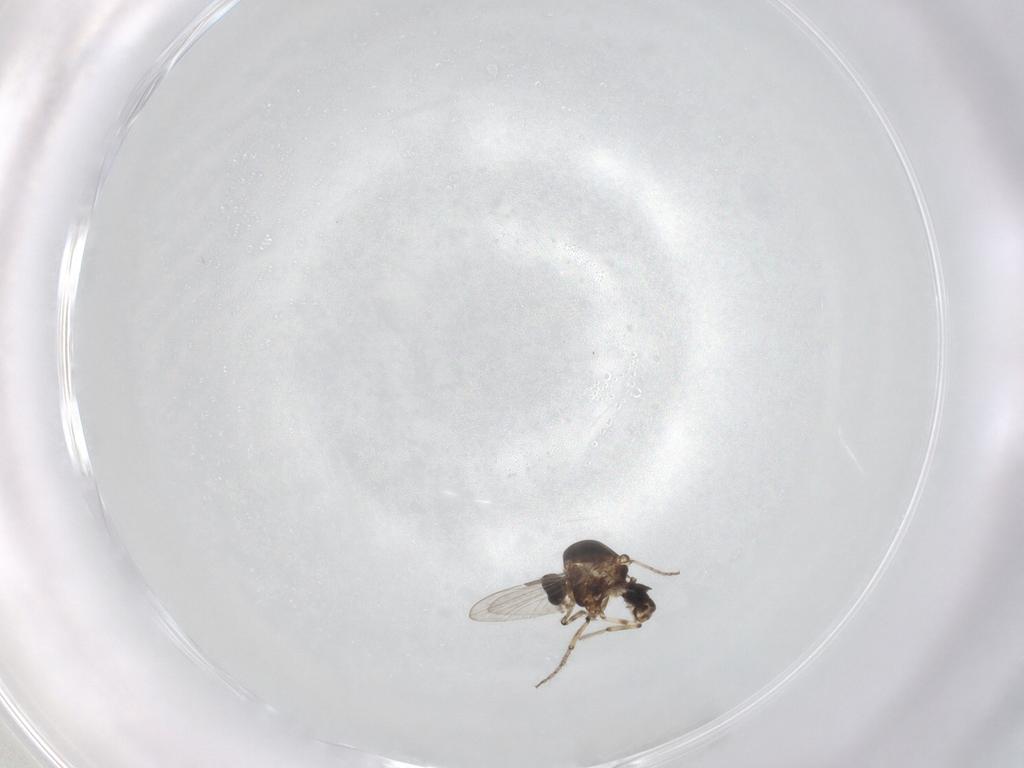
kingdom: Animalia
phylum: Arthropoda
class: Insecta
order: Diptera
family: Ceratopogonidae
